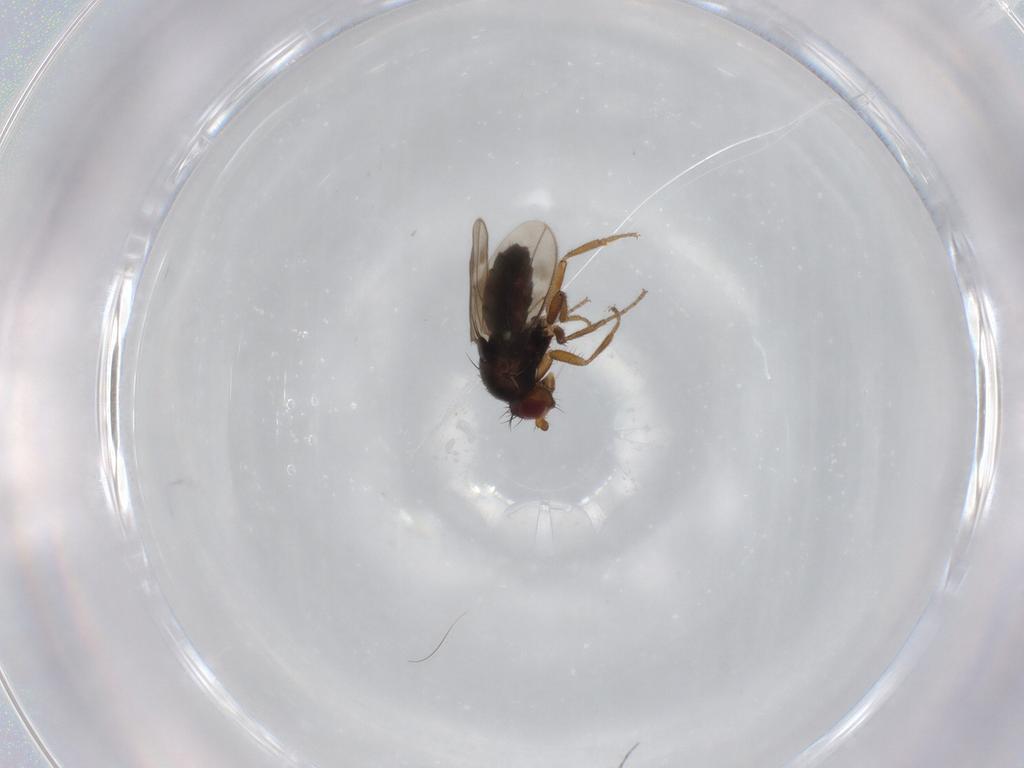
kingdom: Animalia
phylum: Arthropoda
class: Insecta
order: Diptera
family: Sphaeroceridae
